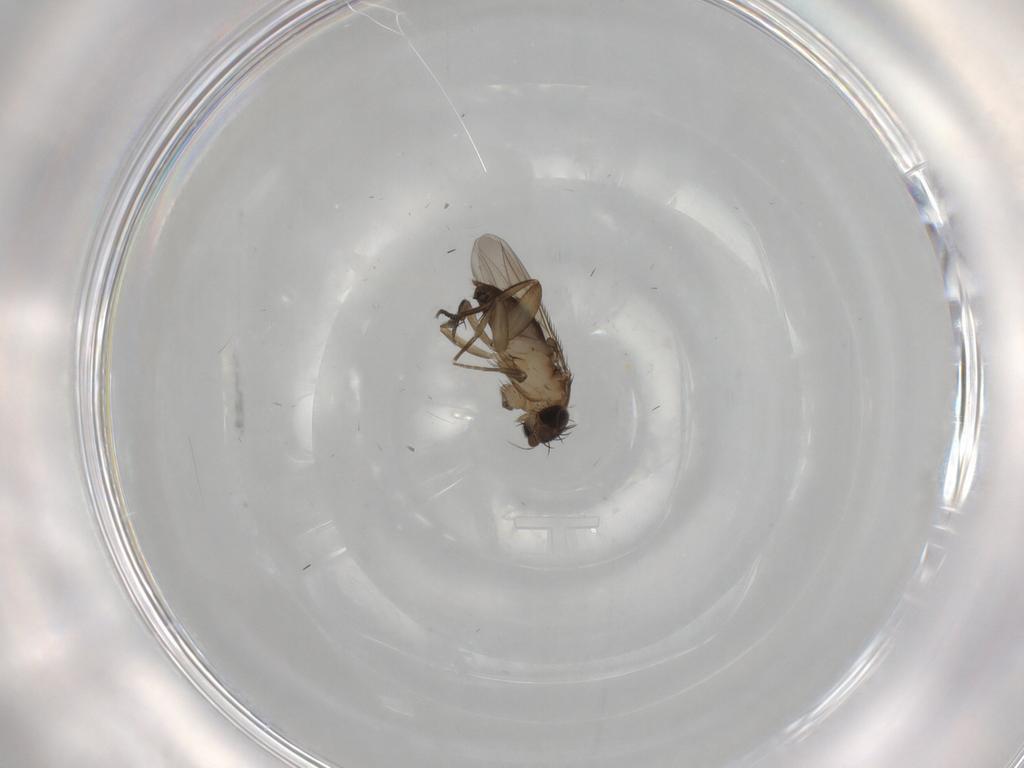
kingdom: Animalia
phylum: Arthropoda
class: Insecta
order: Diptera
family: Phoridae
